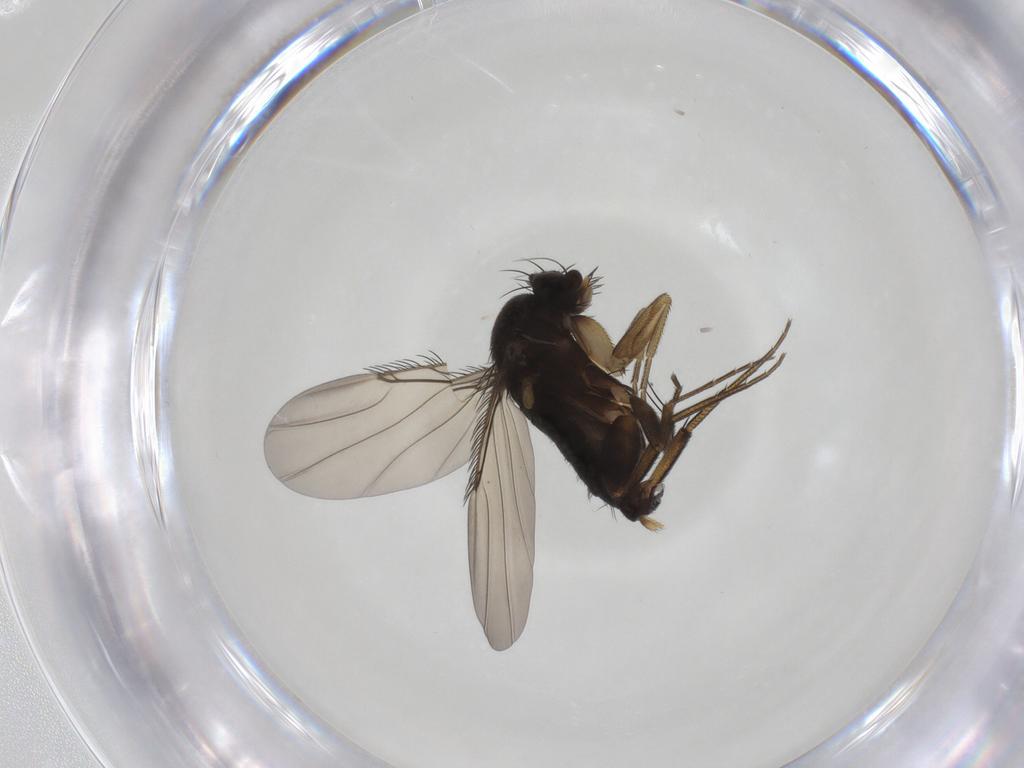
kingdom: Animalia
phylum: Arthropoda
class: Insecta
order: Diptera
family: Phoridae
